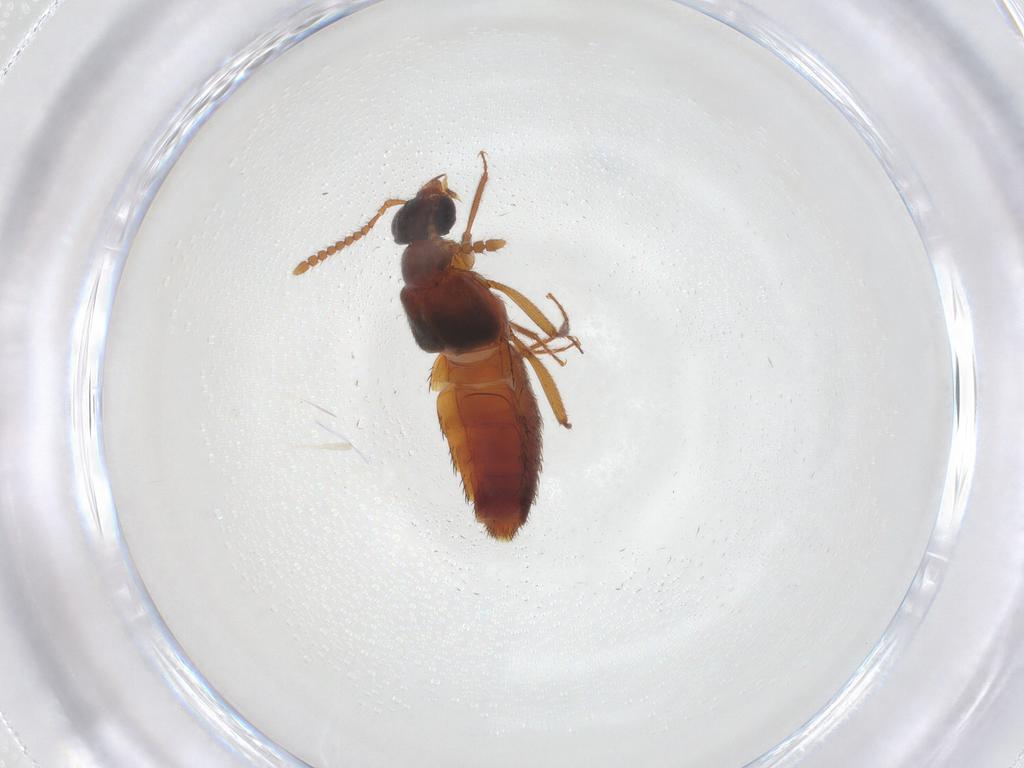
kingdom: Animalia
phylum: Arthropoda
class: Insecta
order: Coleoptera
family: Staphylinidae
